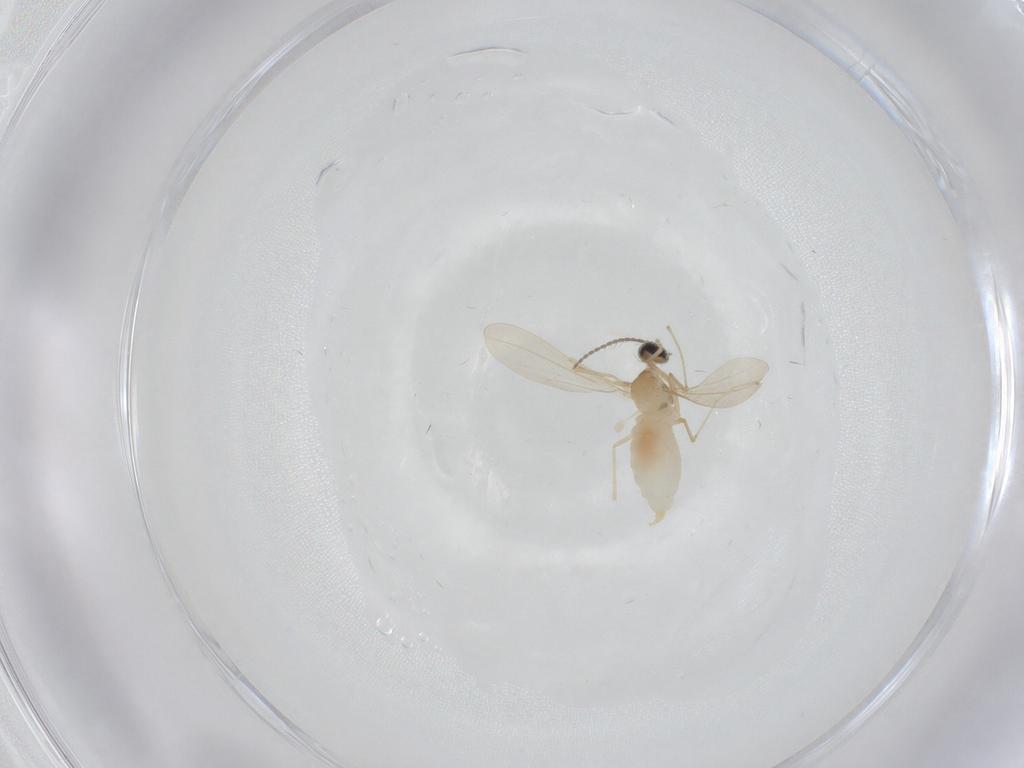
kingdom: Animalia
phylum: Arthropoda
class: Insecta
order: Diptera
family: Cecidomyiidae
